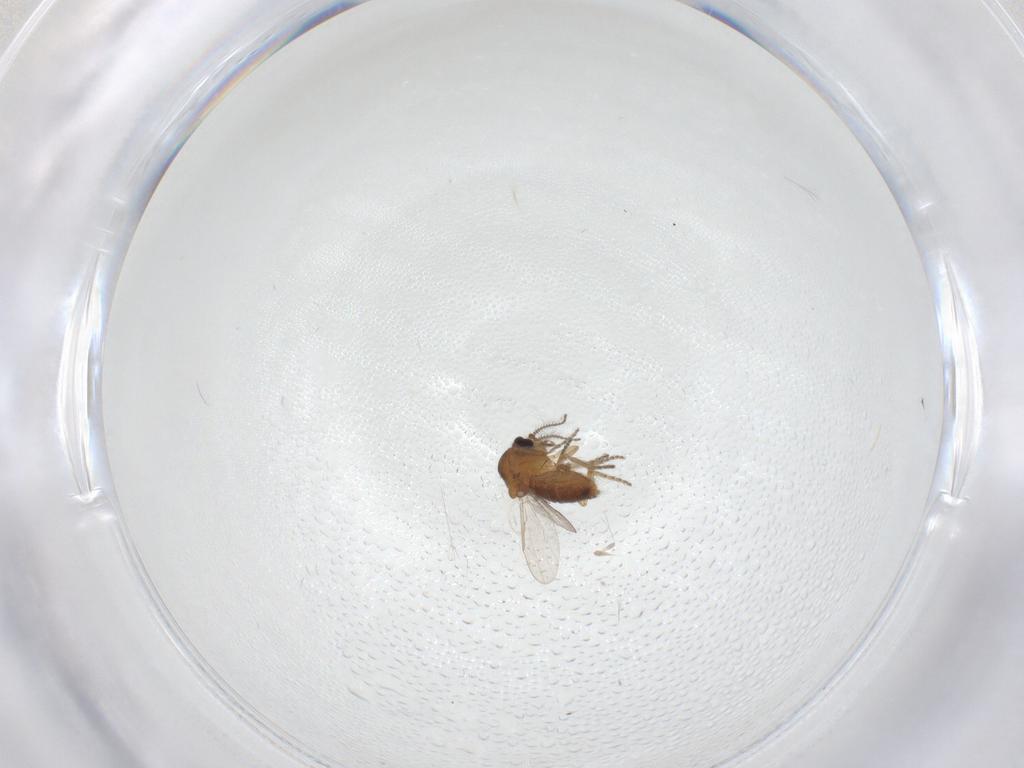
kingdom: Animalia
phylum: Arthropoda
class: Insecta
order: Diptera
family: Ceratopogonidae
